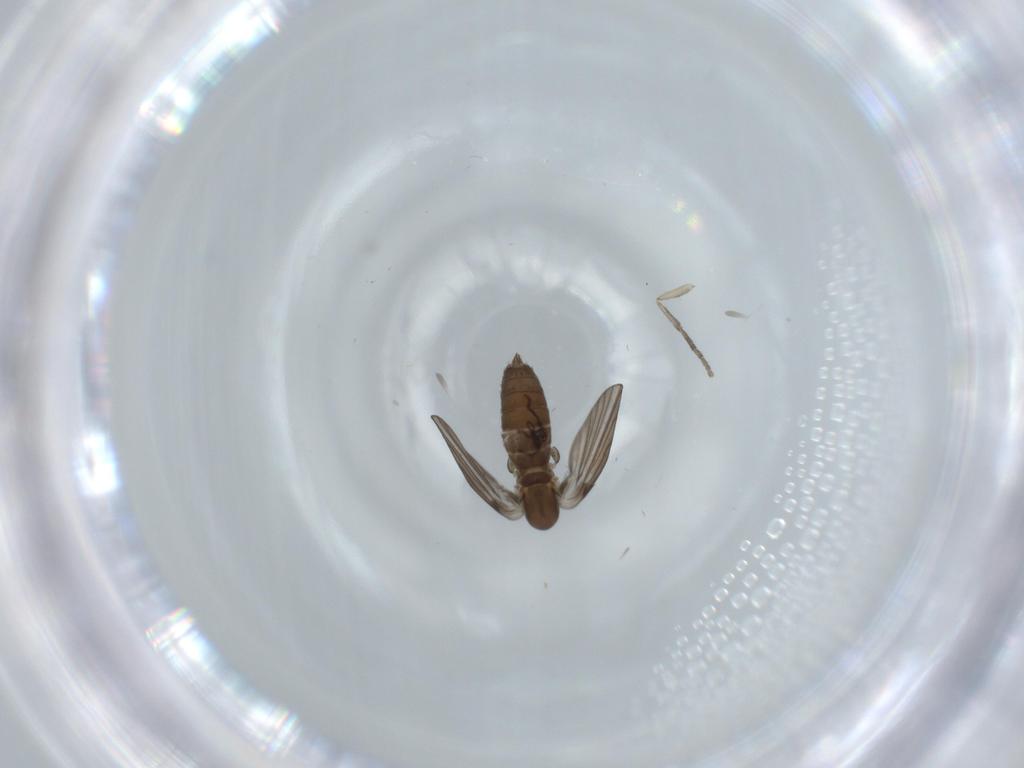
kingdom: Animalia
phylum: Arthropoda
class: Insecta
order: Diptera
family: Psychodidae
